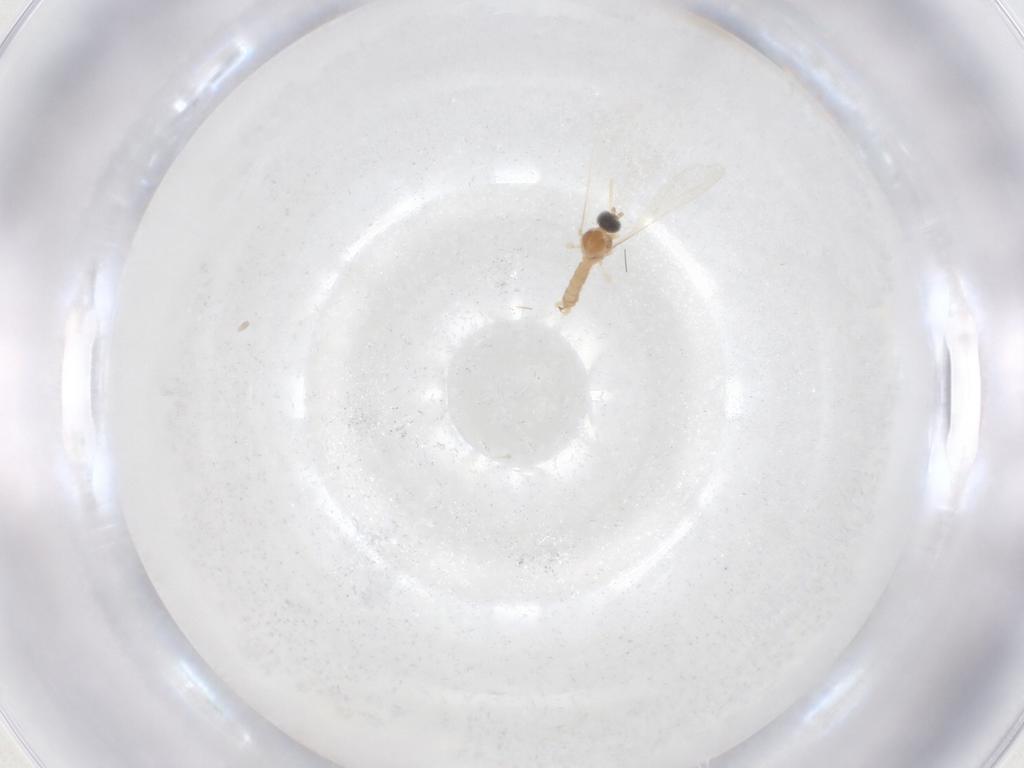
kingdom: Animalia
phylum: Arthropoda
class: Insecta
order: Diptera
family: Cecidomyiidae
